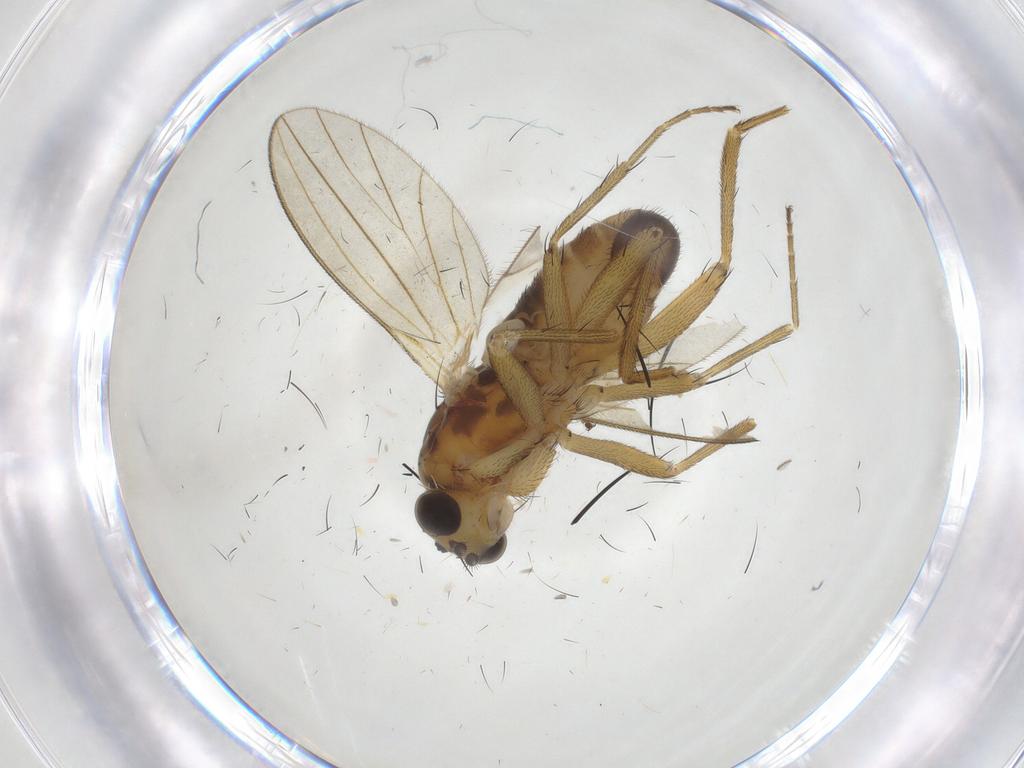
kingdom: Animalia
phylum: Arthropoda
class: Insecta
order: Diptera
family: Lonchopteridae
